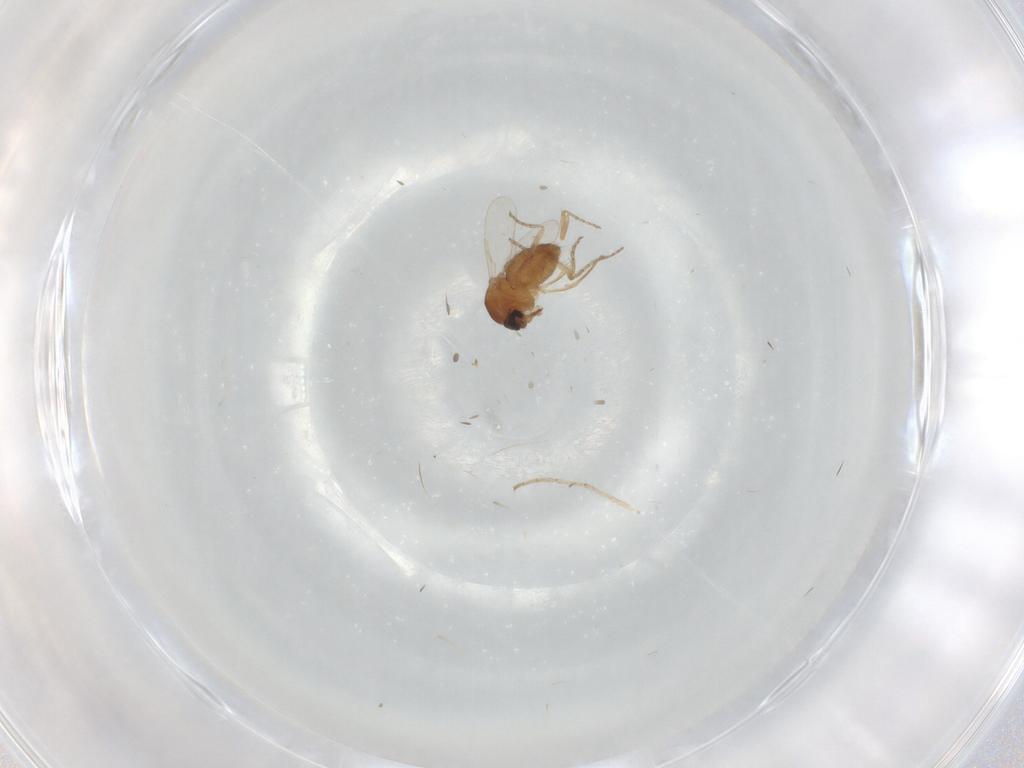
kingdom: Animalia
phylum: Arthropoda
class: Insecta
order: Diptera
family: Ceratopogonidae
